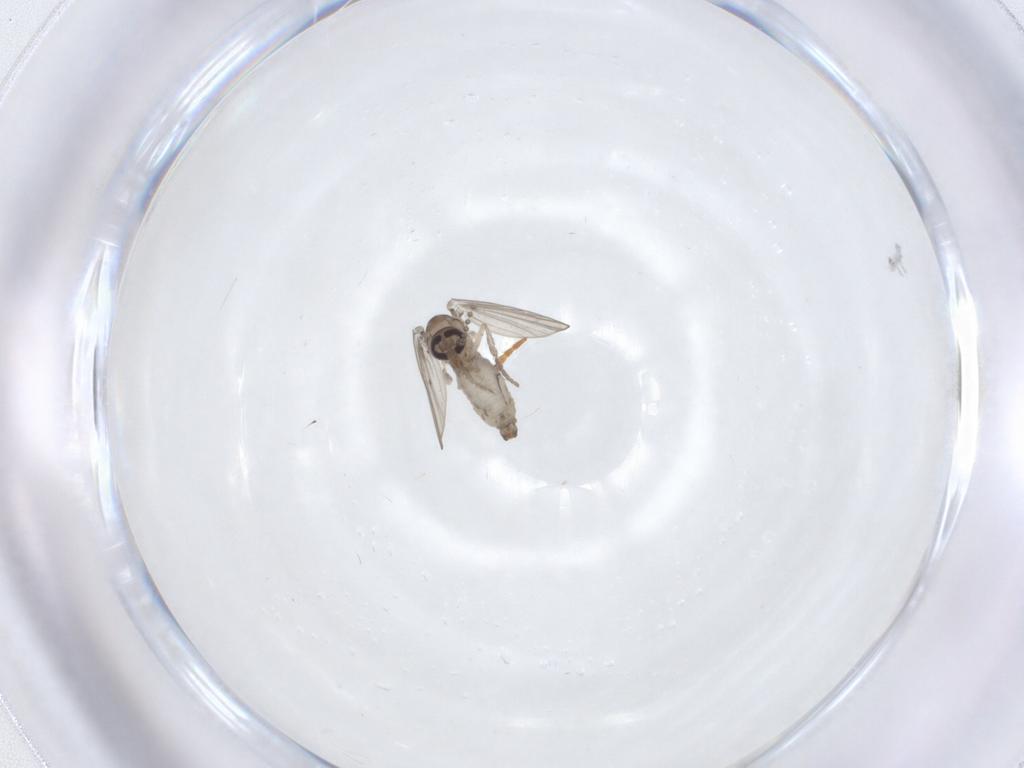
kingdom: Animalia
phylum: Arthropoda
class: Insecta
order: Diptera
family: Psychodidae
